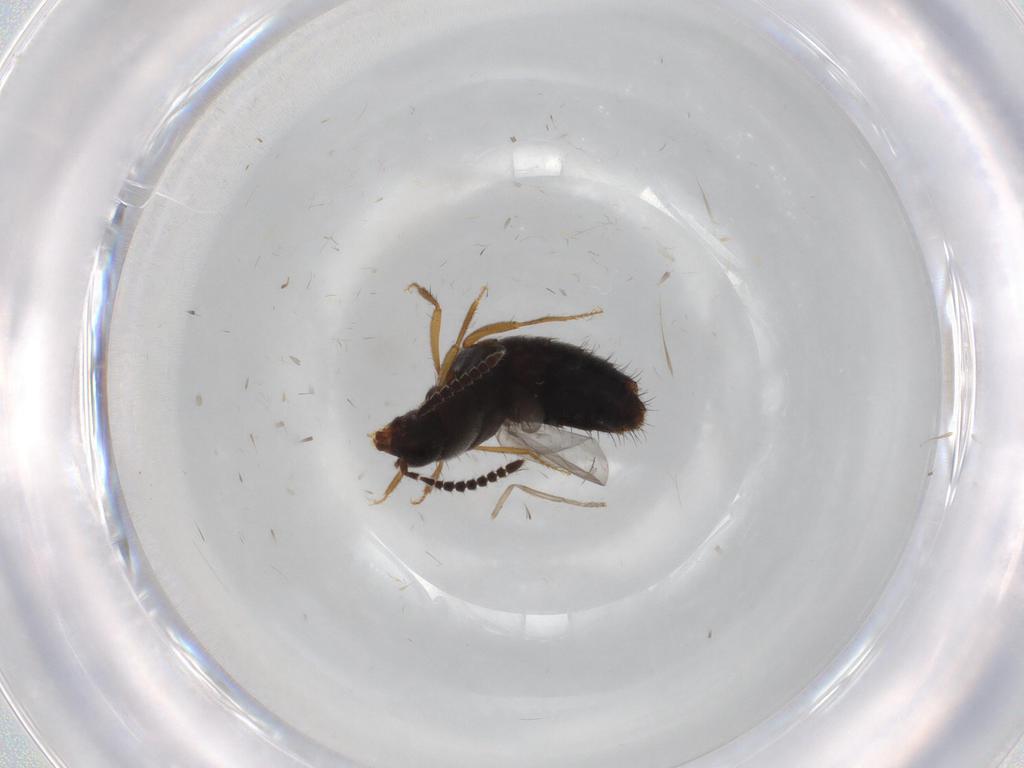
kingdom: Animalia
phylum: Arthropoda
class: Insecta
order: Coleoptera
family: Staphylinidae
